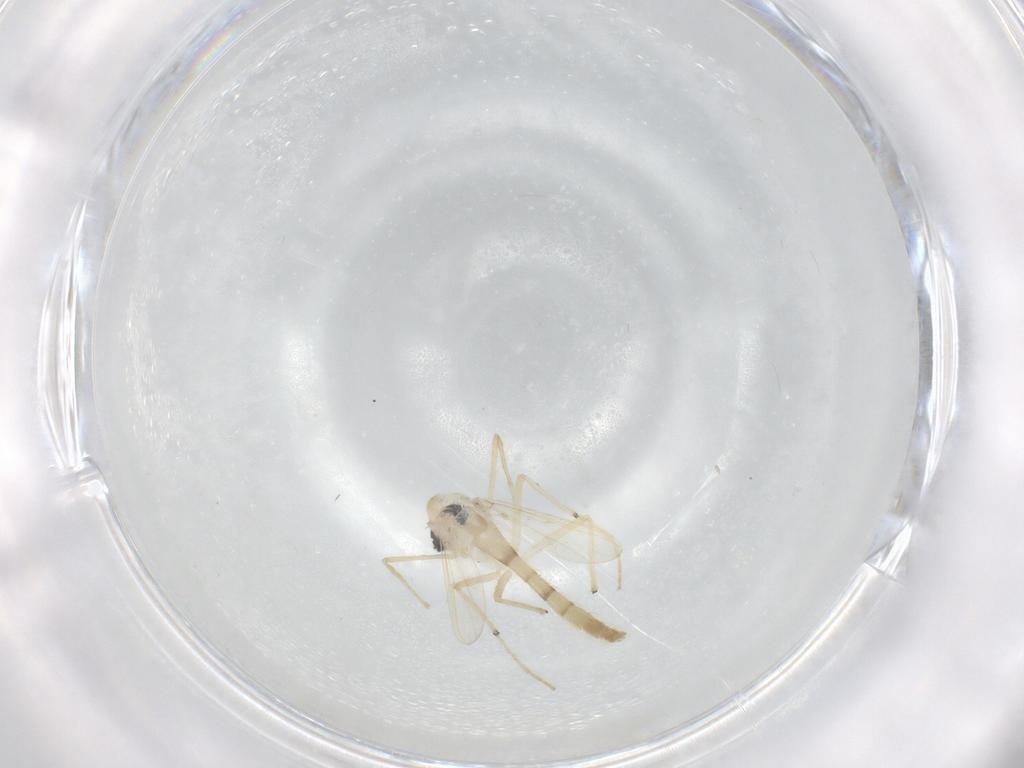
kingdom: Animalia
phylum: Arthropoda
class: Insecta
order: Diptera
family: Chironomidae
